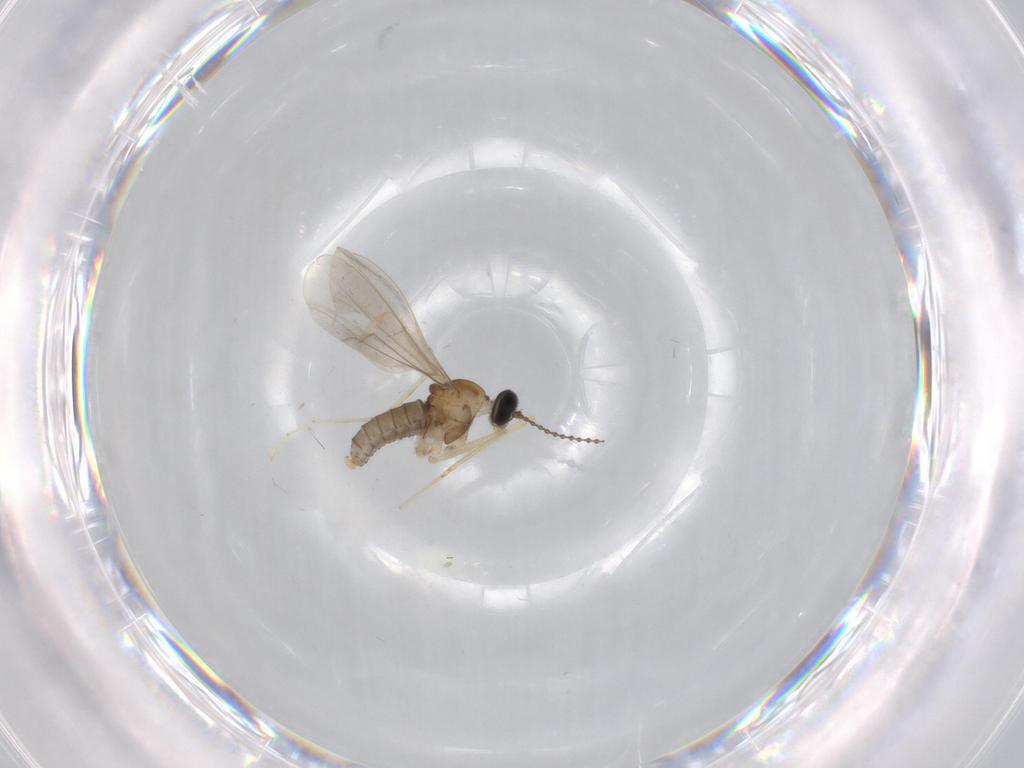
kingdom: Animalia
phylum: Arthropoda
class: Insecta
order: Diptera
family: Cecidomyiidae
